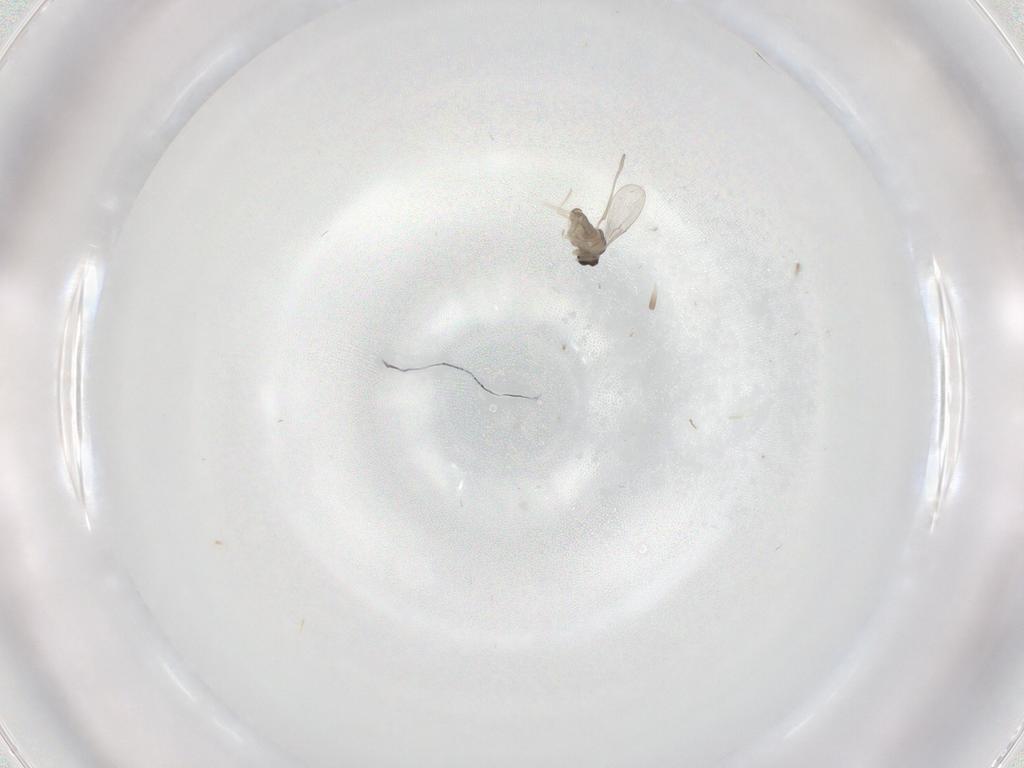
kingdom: Animalia
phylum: Arthropoda
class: Insecta
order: Diptera
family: Cecidomyiidae
